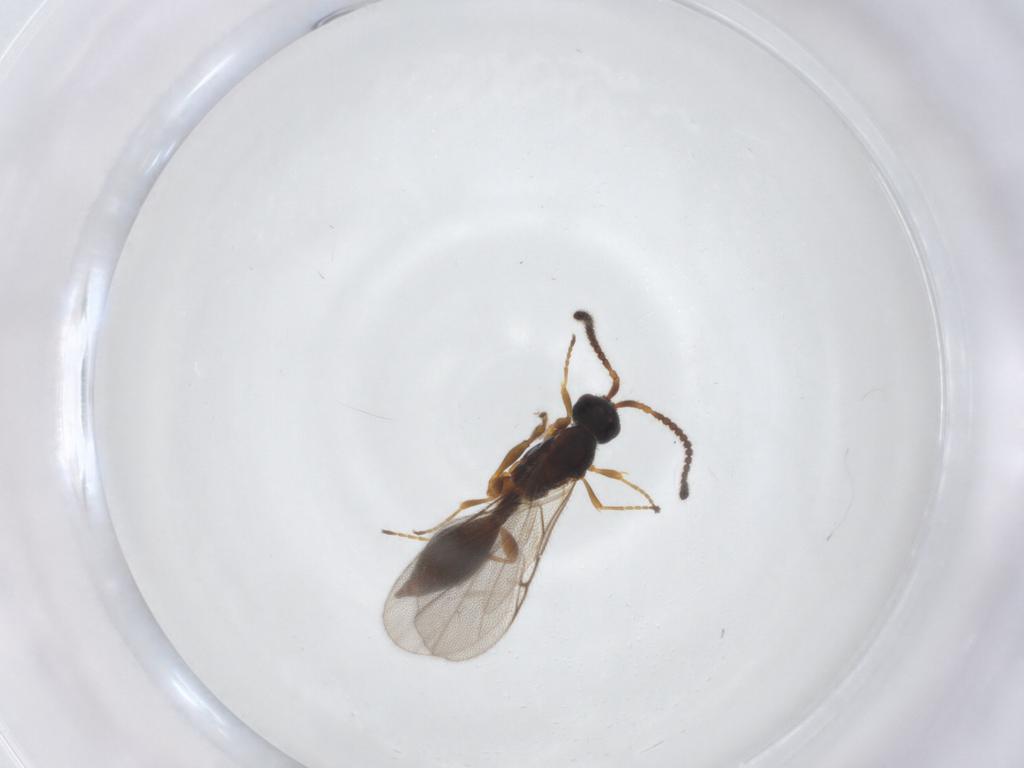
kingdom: Animalia
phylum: Arthropoda
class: Insecta
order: Hymenoptera
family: Diapriidae
